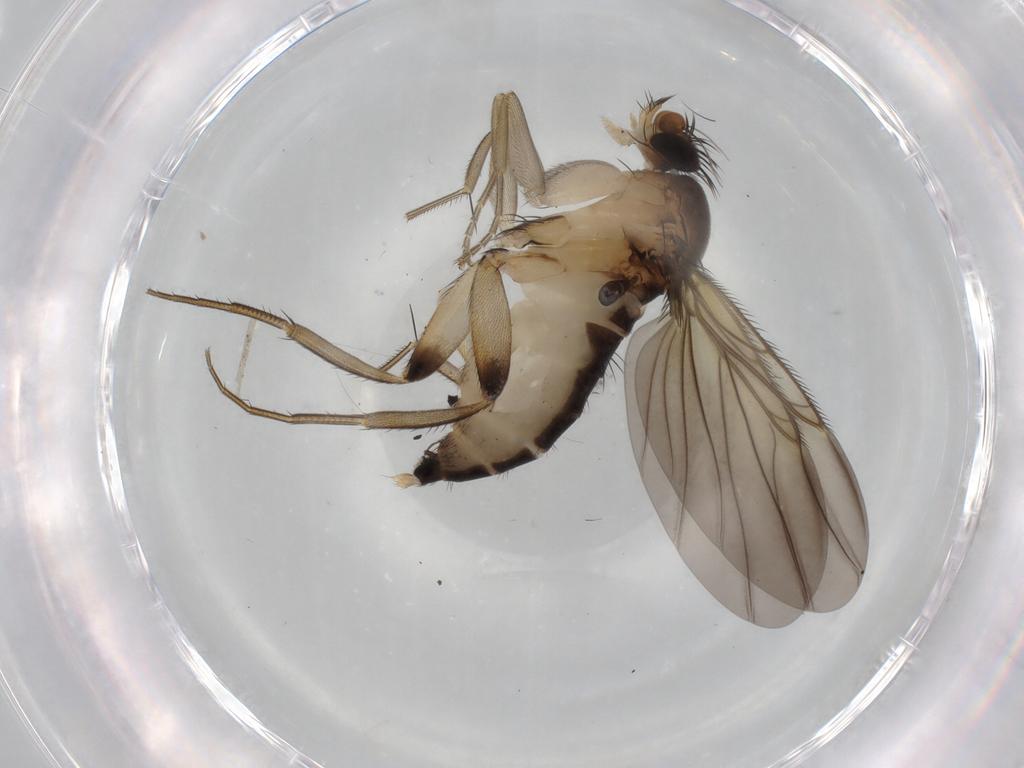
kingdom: Animalia
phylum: Arthropoda
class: Insecta
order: Diptera
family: Phoridae
